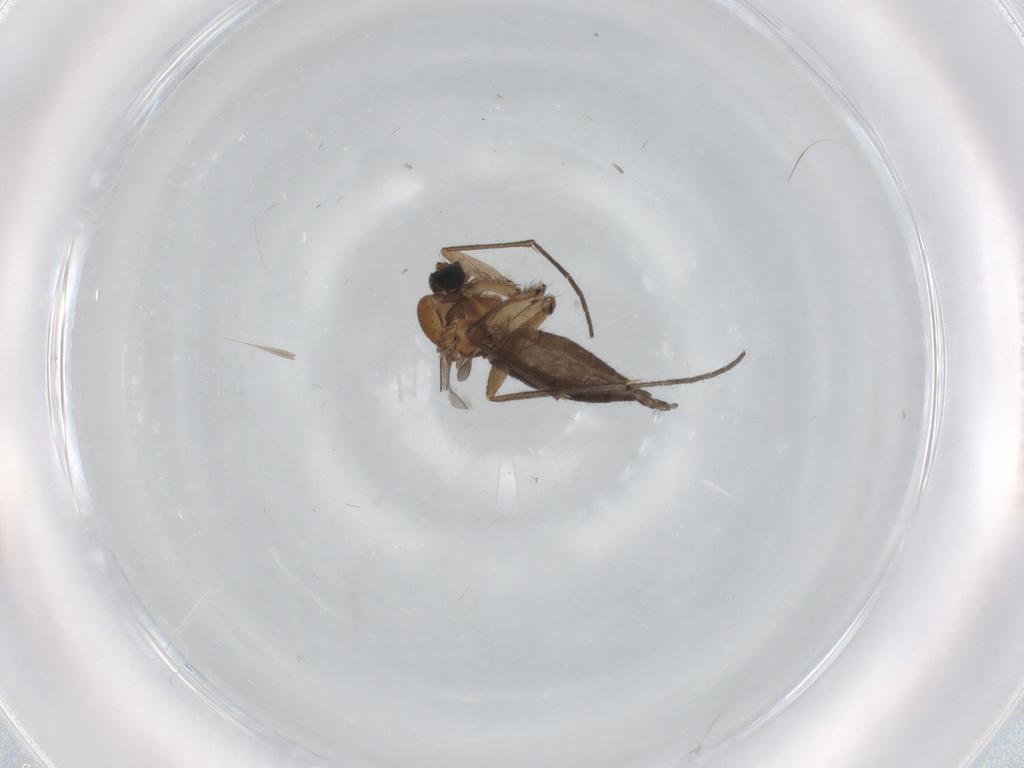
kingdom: Animalia
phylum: Arthropoda
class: Insecta
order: Diptera
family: Sciaridae
